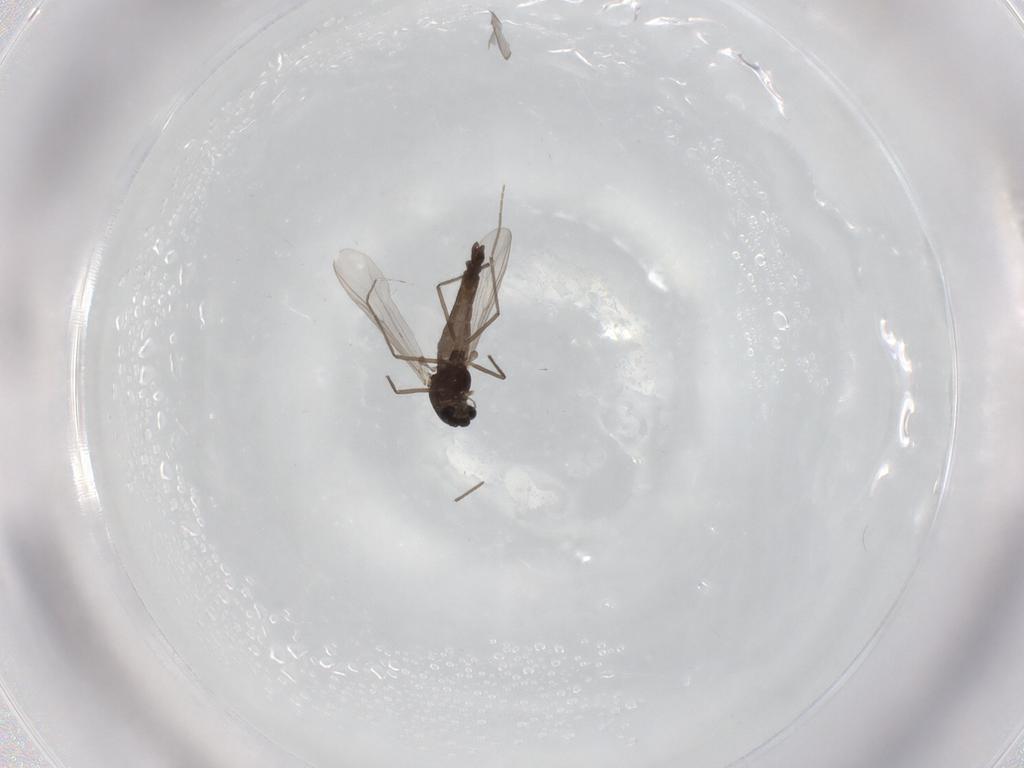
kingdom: Animalia
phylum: Arthropoda
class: Insecta
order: Diptera
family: Chironomidae
